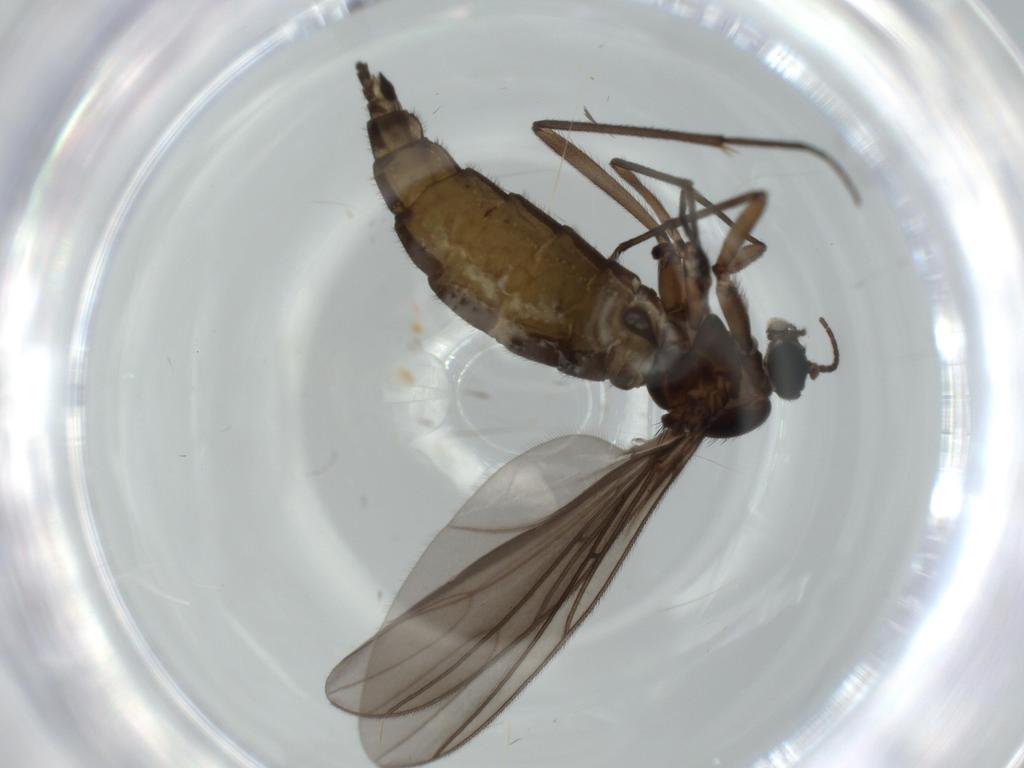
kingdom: Animalia
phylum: Arthropoda
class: Insecta
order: Diptera
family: Sciaridae
